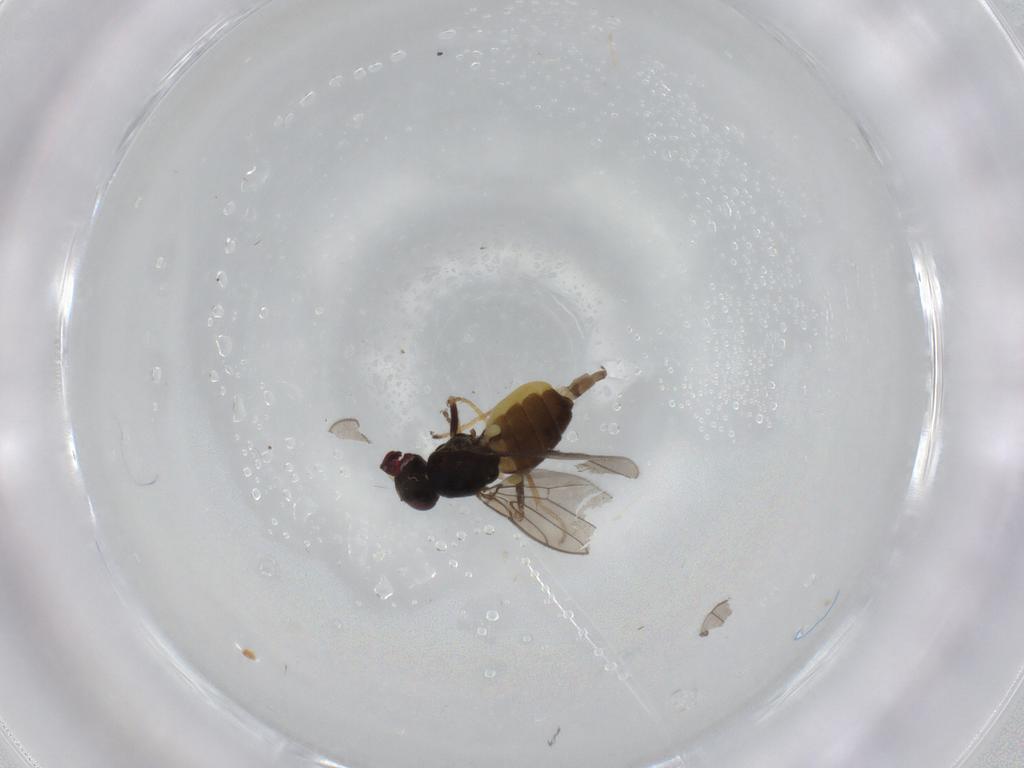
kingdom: Animalia
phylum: Arthropoda
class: Insecta
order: Diptera
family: Chloropidae
